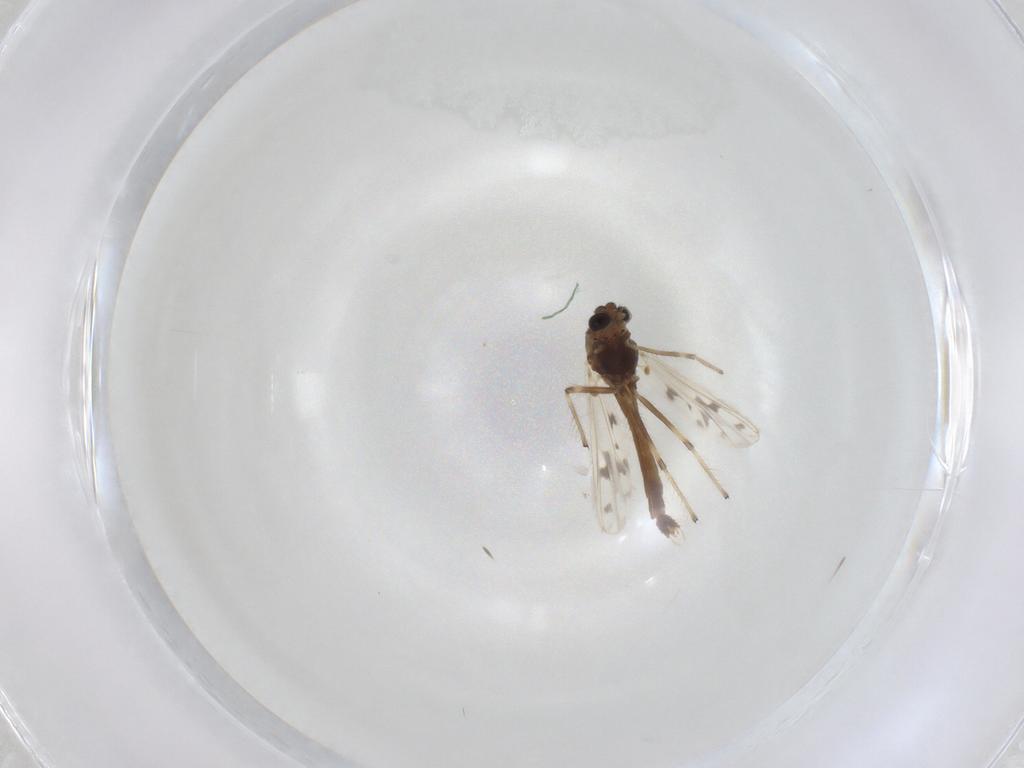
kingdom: Animalia
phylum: Arthropoda
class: Insecta
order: Diptera
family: Chironomidae
